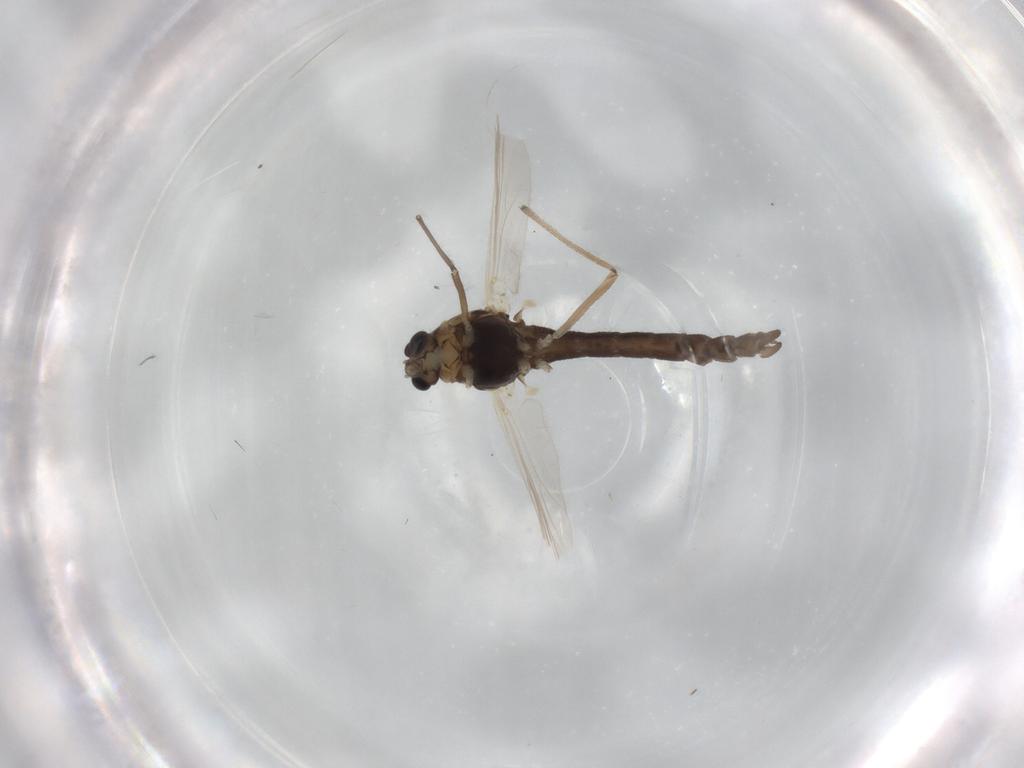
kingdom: Animalia
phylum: Arthropoda
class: Insecta
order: Diptera
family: Chironomidae
